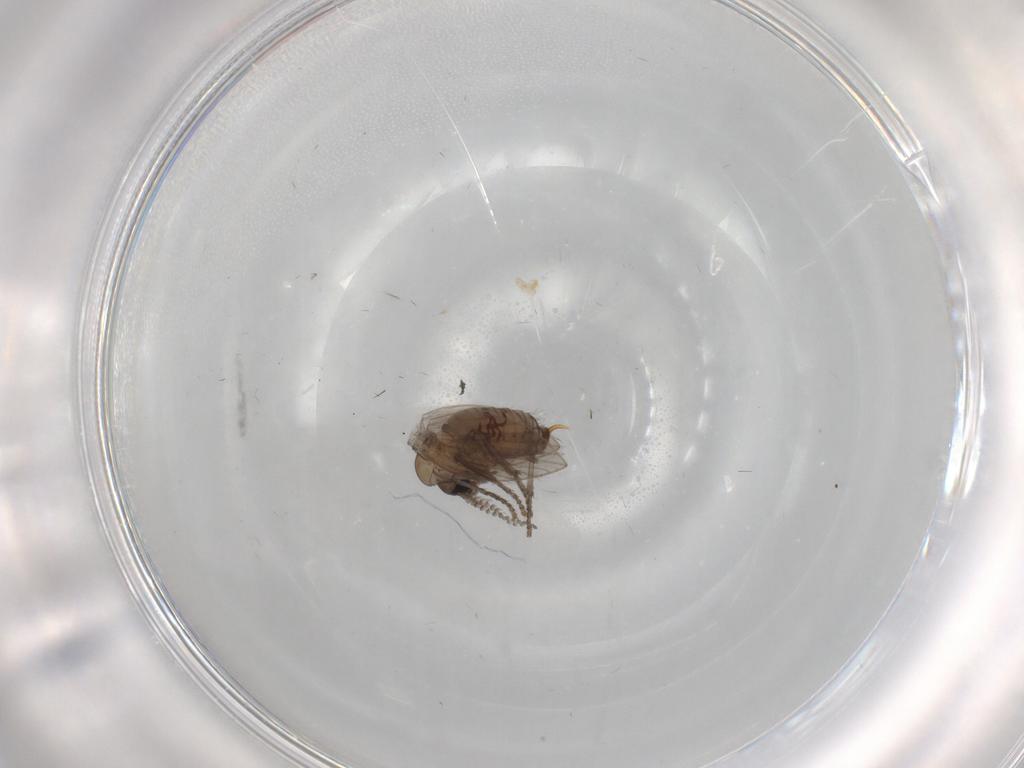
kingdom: Animalia
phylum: Arthropoda
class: Insecta
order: Diptera
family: Psychodidae
